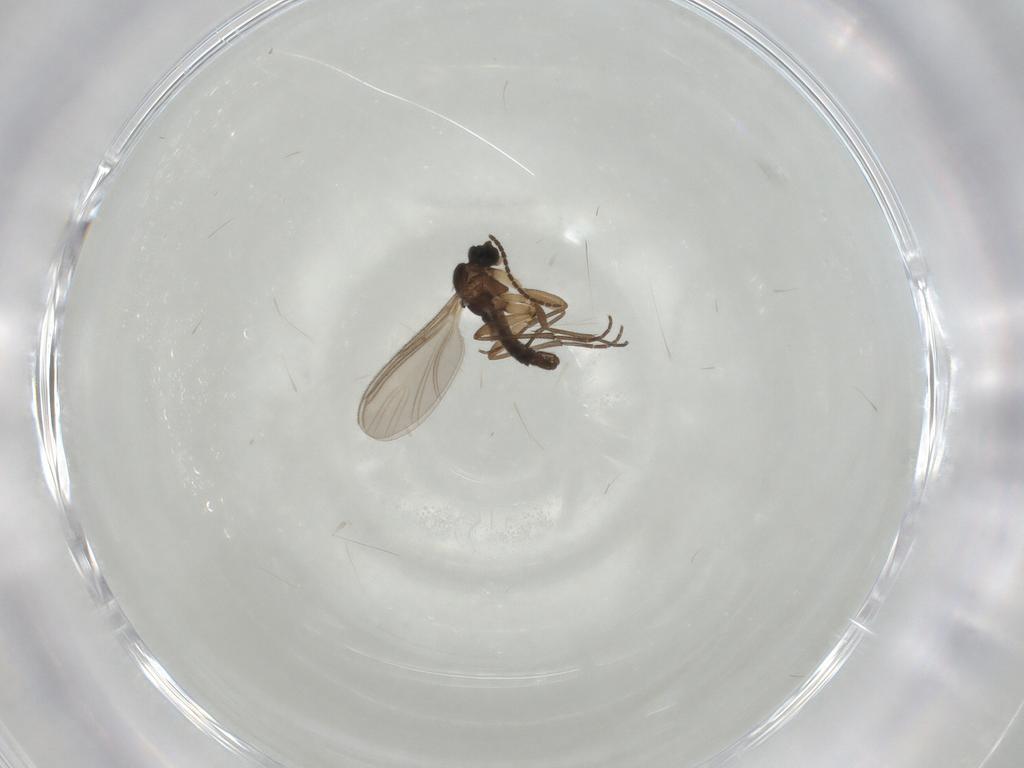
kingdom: Animalia
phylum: Arthropoda
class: Insecta
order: Diptera
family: Sciaridae
